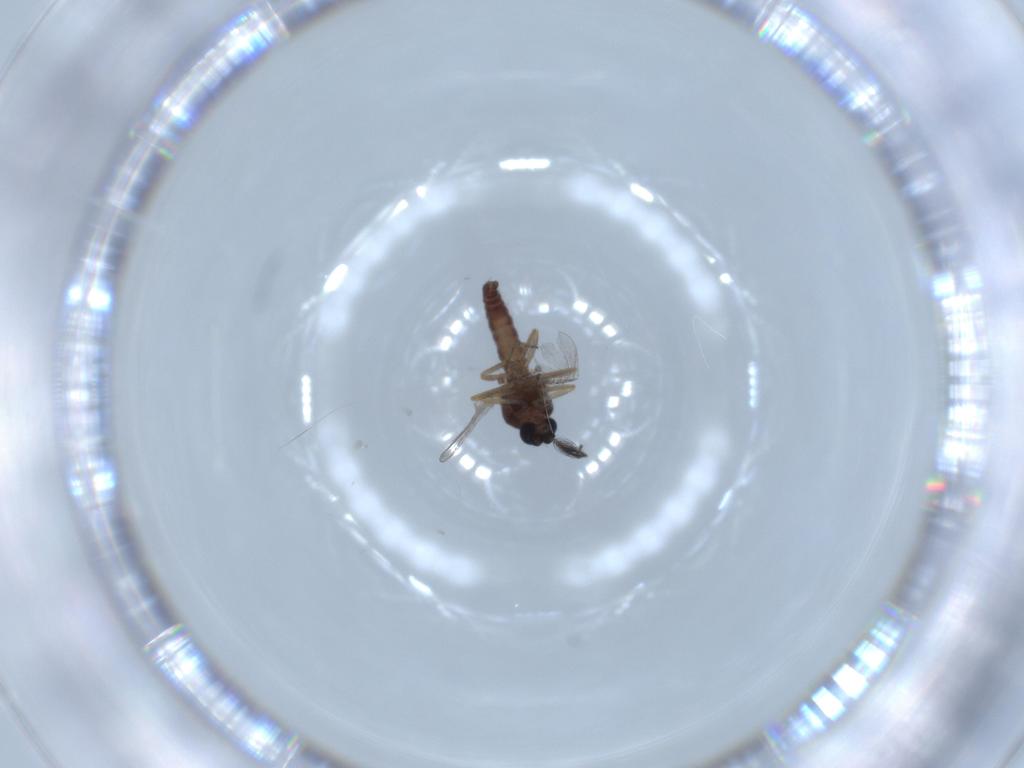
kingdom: Animalia
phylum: Arthropoda
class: Insecta
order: Diptera
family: Ceratopogonidae
